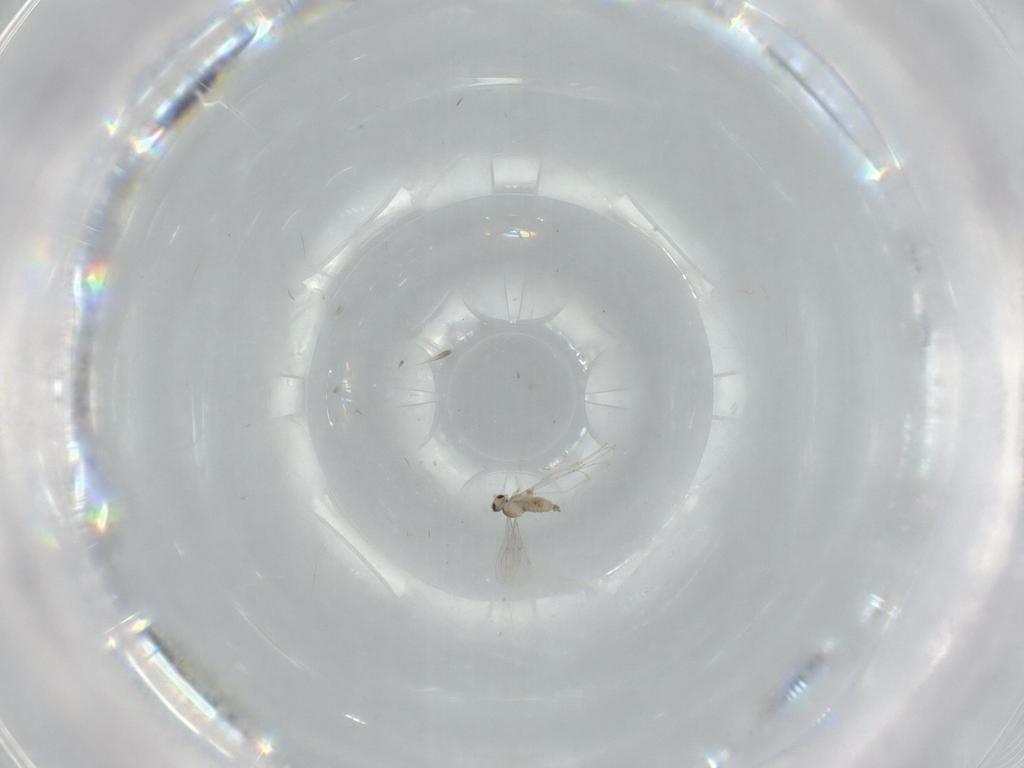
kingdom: Animalia
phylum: Arthropoda
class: Insecta
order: Diptera
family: Cecidomyiidae
